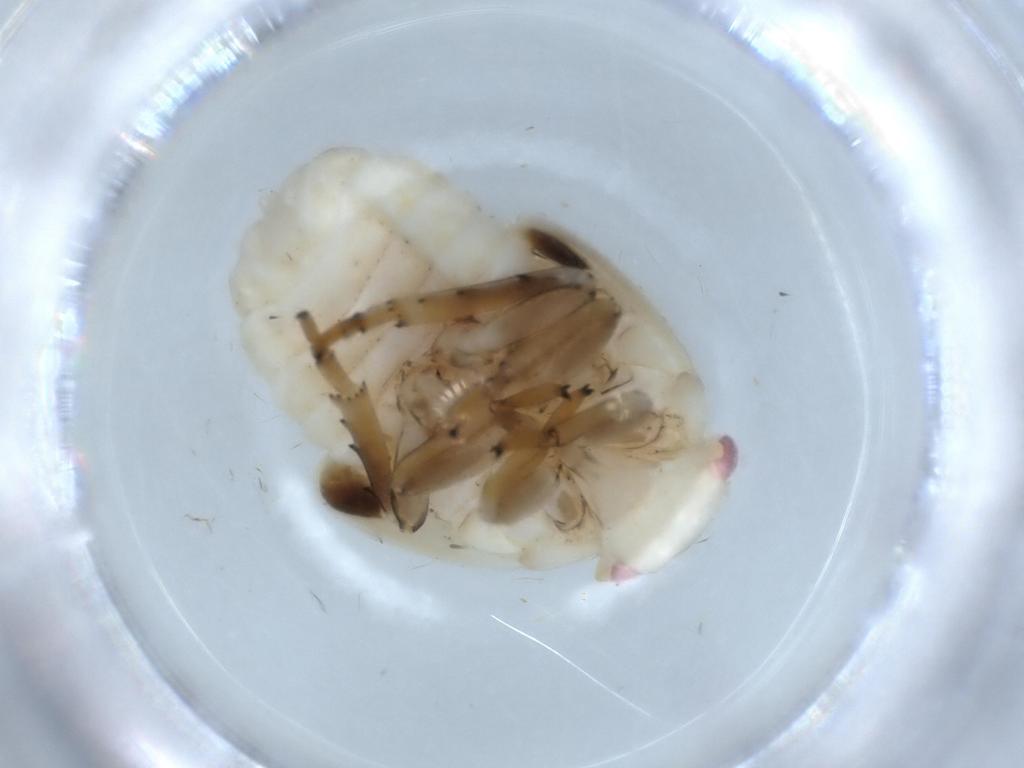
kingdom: Animalia
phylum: Arthropoda
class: Insecta
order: Hemiptera
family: Flatidae
